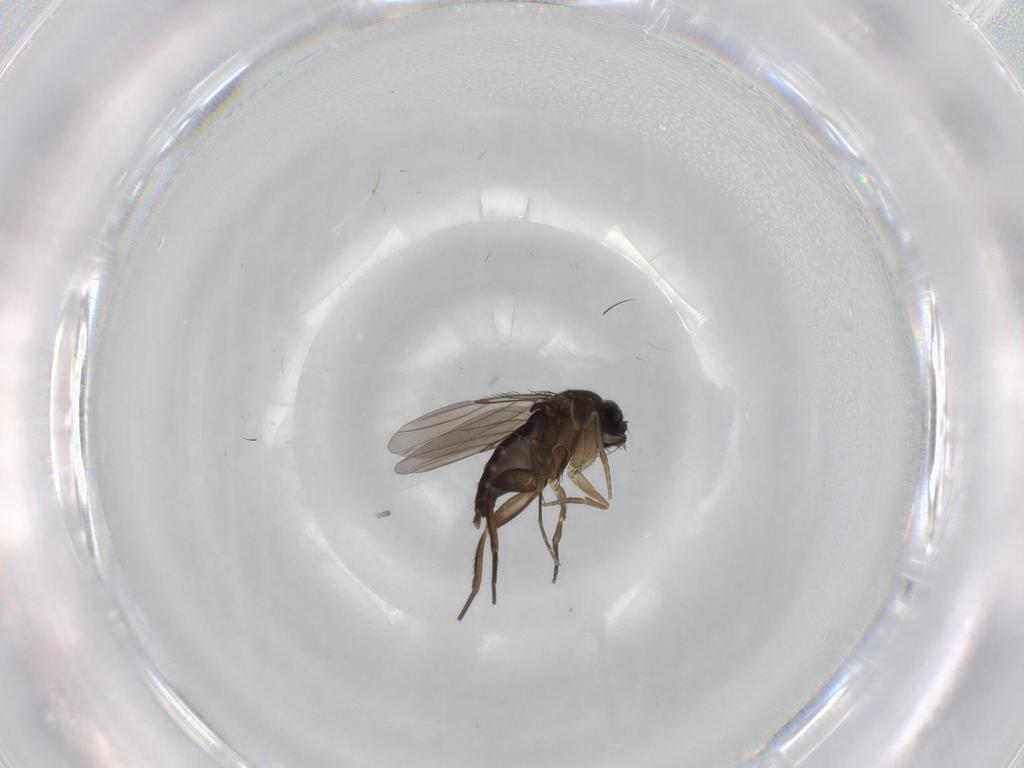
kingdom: Animalia
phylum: Arthropoda
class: Insecta
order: Diptera
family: Phoridae
